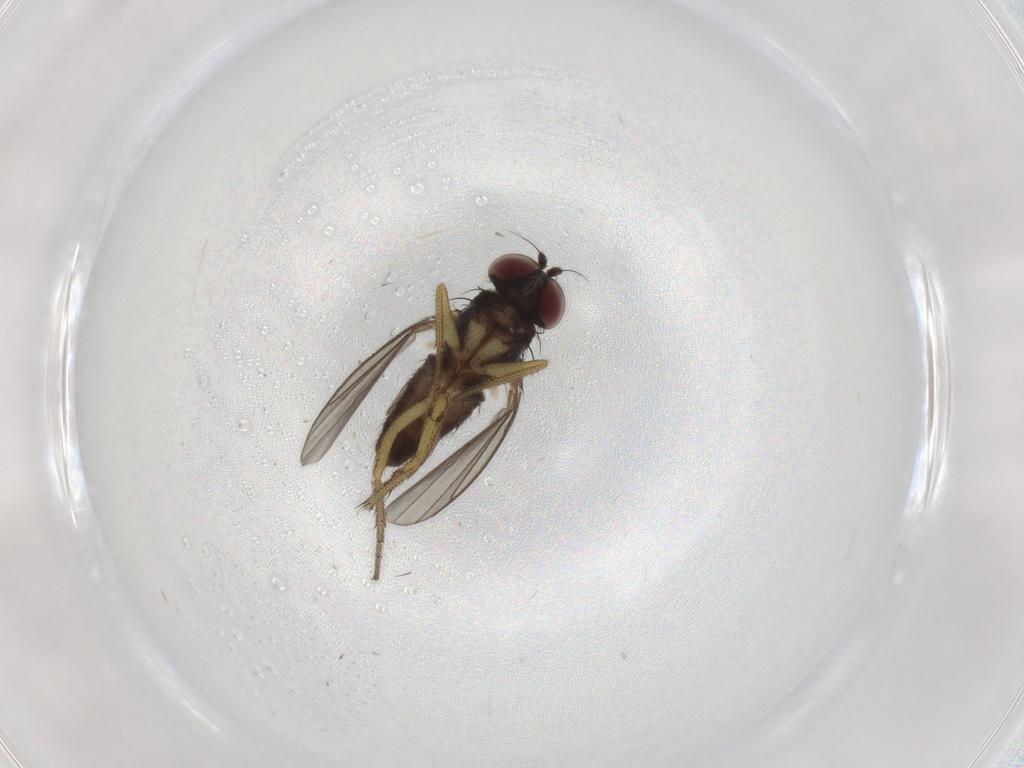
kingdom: Animalia
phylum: Arthropoda
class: Insecta
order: Diptera
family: Dolichopodidae
